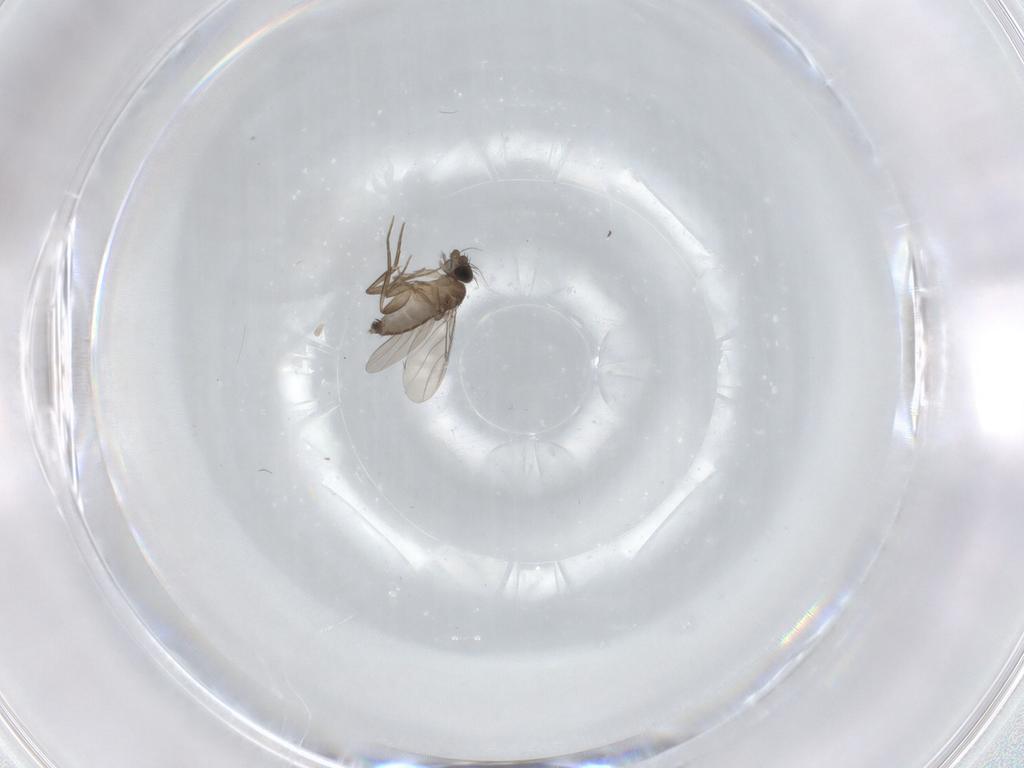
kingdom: Animalia
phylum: Arthropoda
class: Insecta
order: Diptera
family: Phoridae
